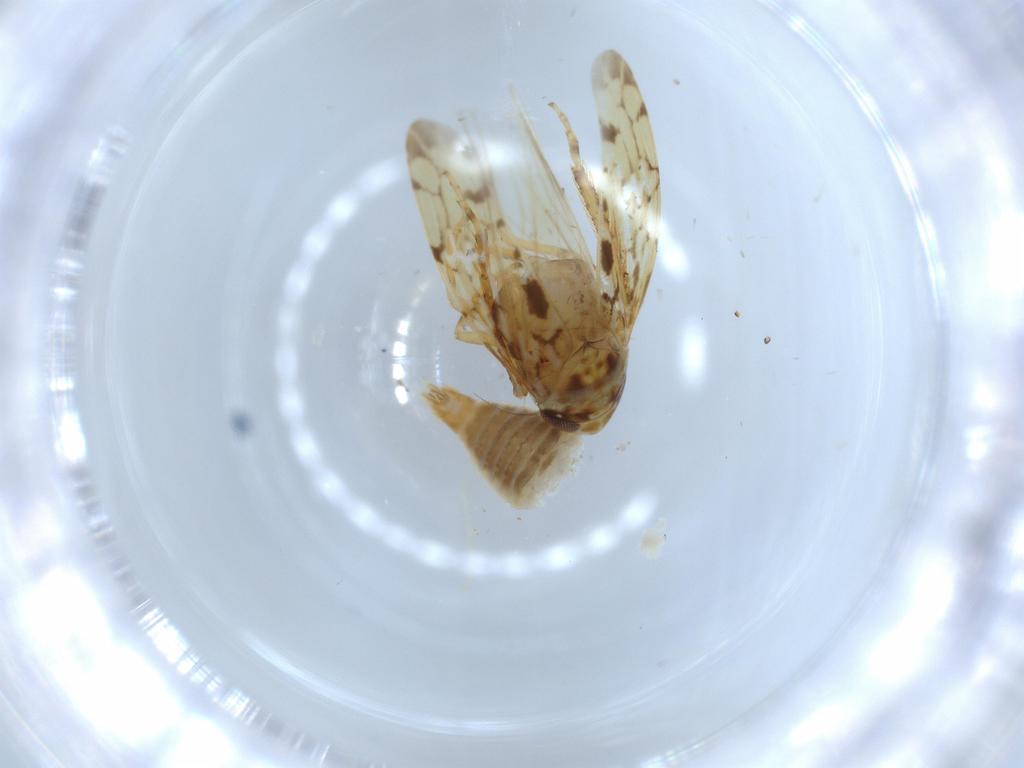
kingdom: Animalia
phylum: Arthropoda
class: Insecta
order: Hemiptera
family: Cicadellidae
